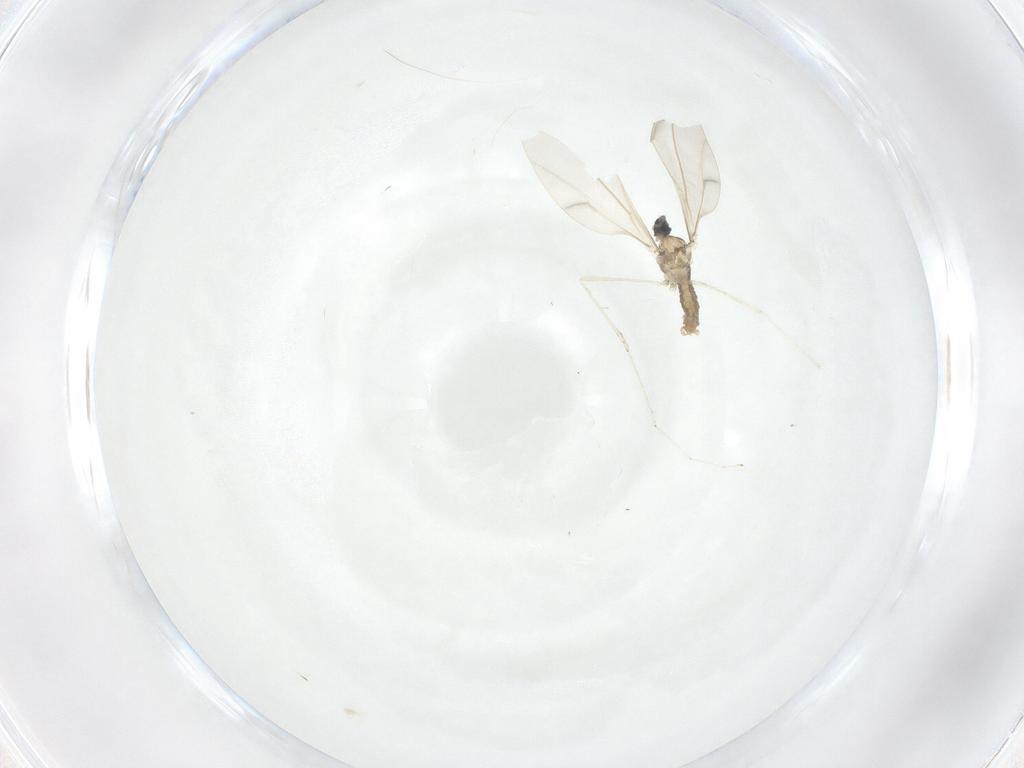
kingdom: Animalia
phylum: Arthropoda
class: Insecta
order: Diptera
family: Cecidomyiidae
